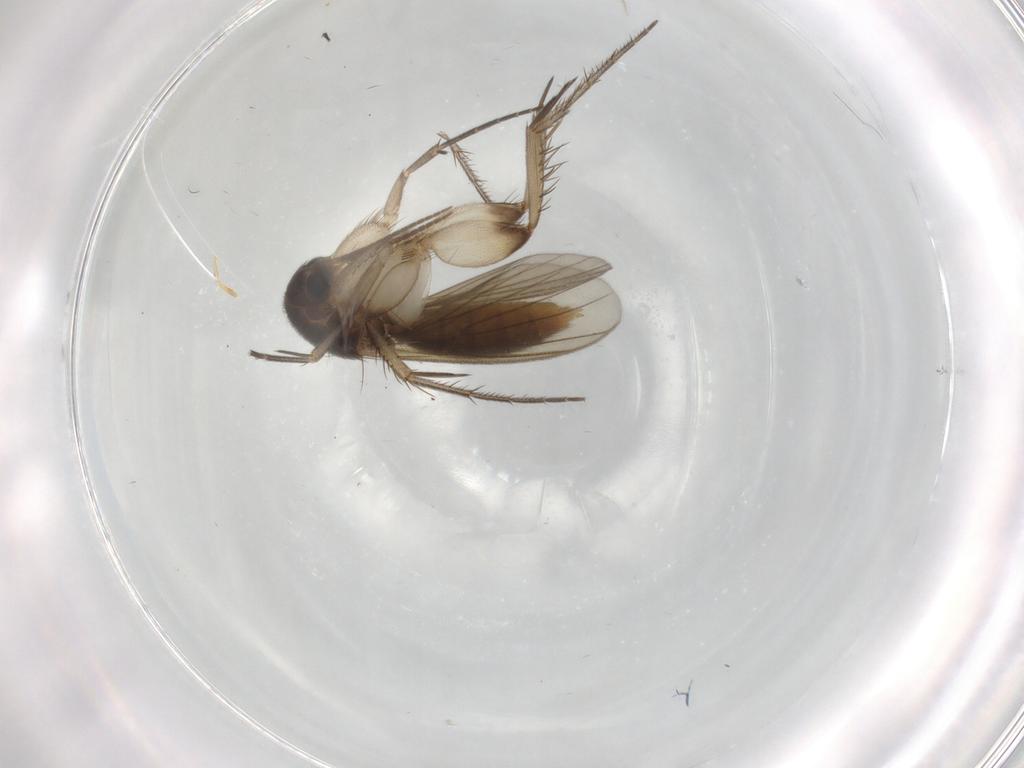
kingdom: Animalia
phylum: Arthropoda
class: Insecta
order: Diptera
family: Mycetophilidae
